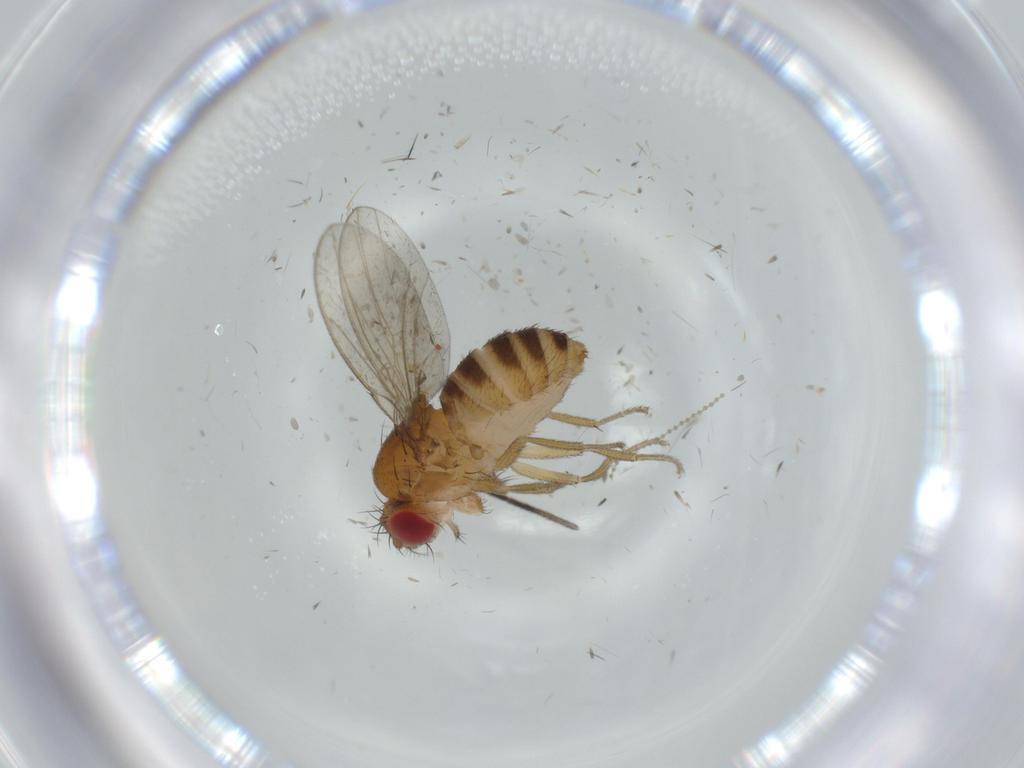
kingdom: Animalia
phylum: Arthropoda
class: Insecta
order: Diptera
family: Drosophilidae
